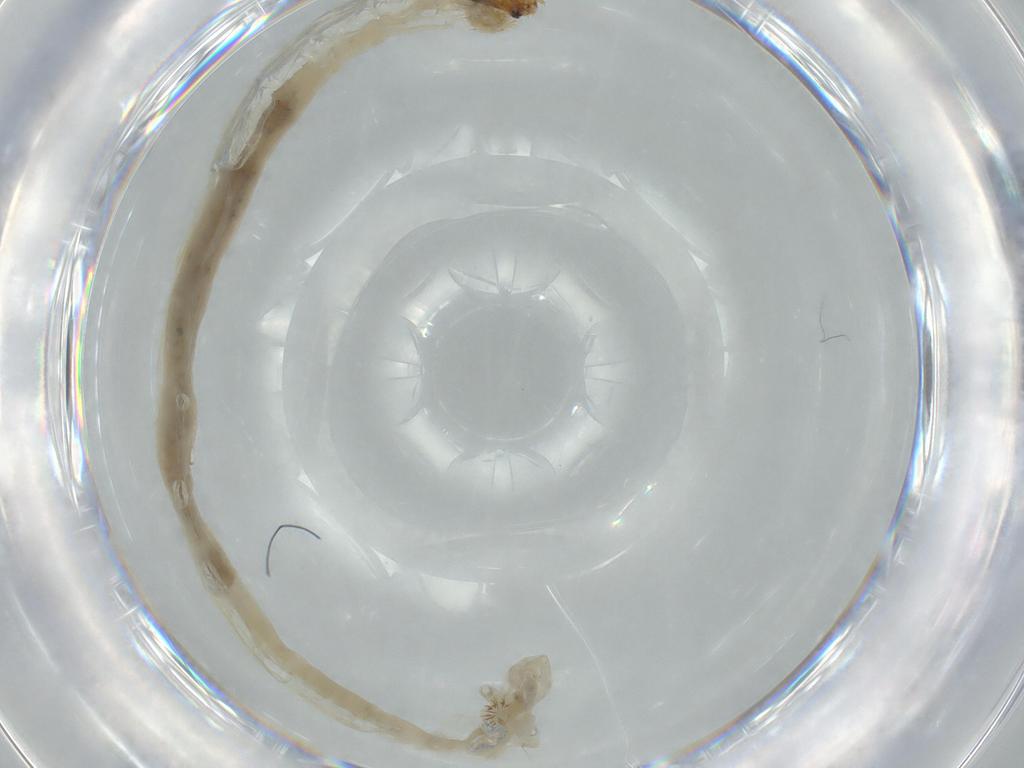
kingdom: Animalia
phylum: Arthropoda
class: Insecta
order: Diptera
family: Chironomidae
